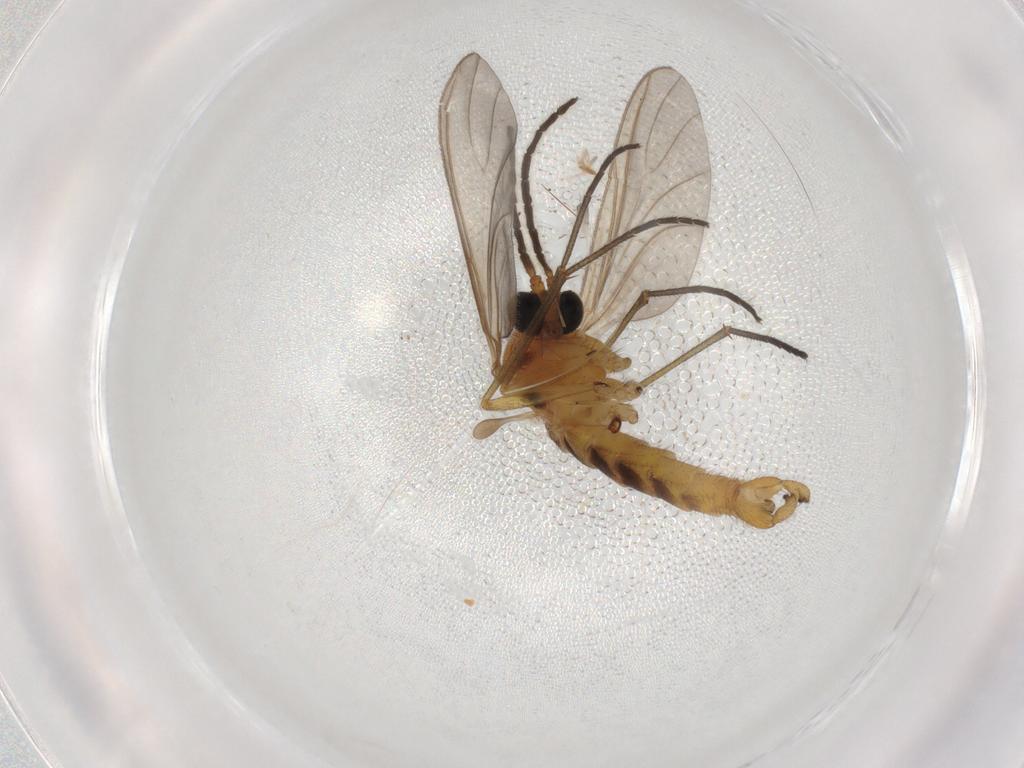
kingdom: Animalia
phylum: Arthropoda
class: Insecta
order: Diptera
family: Sciaridae
